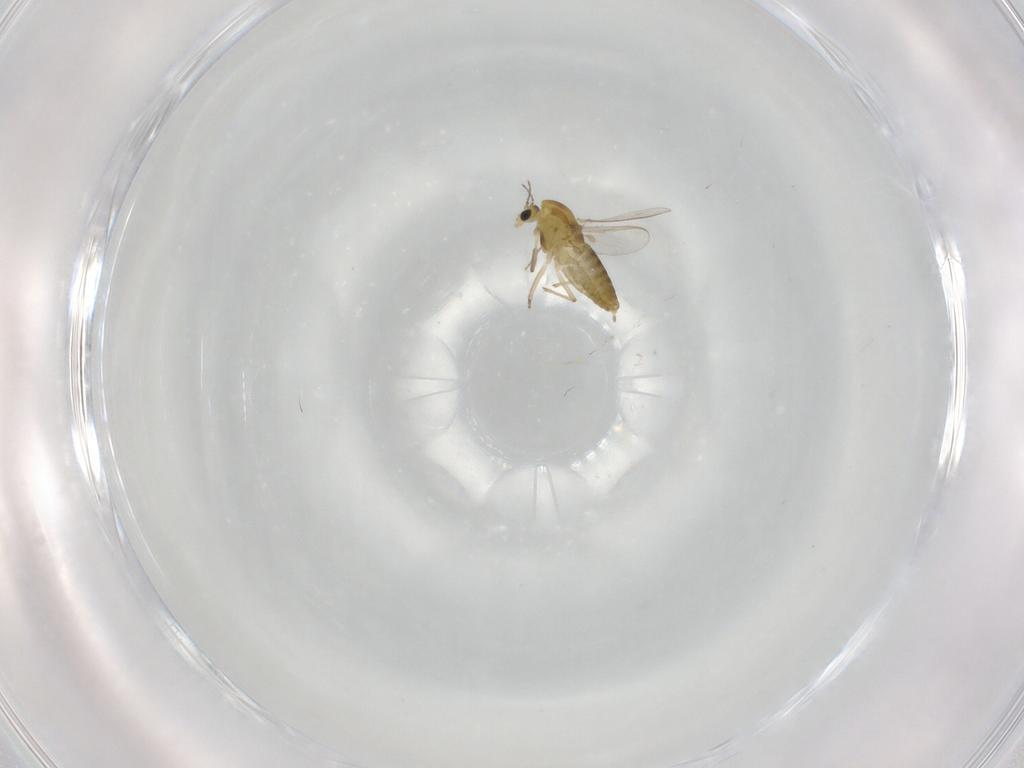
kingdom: Animalia
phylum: Arthropoda
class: Insecta
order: Diptera
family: Chironomidae
